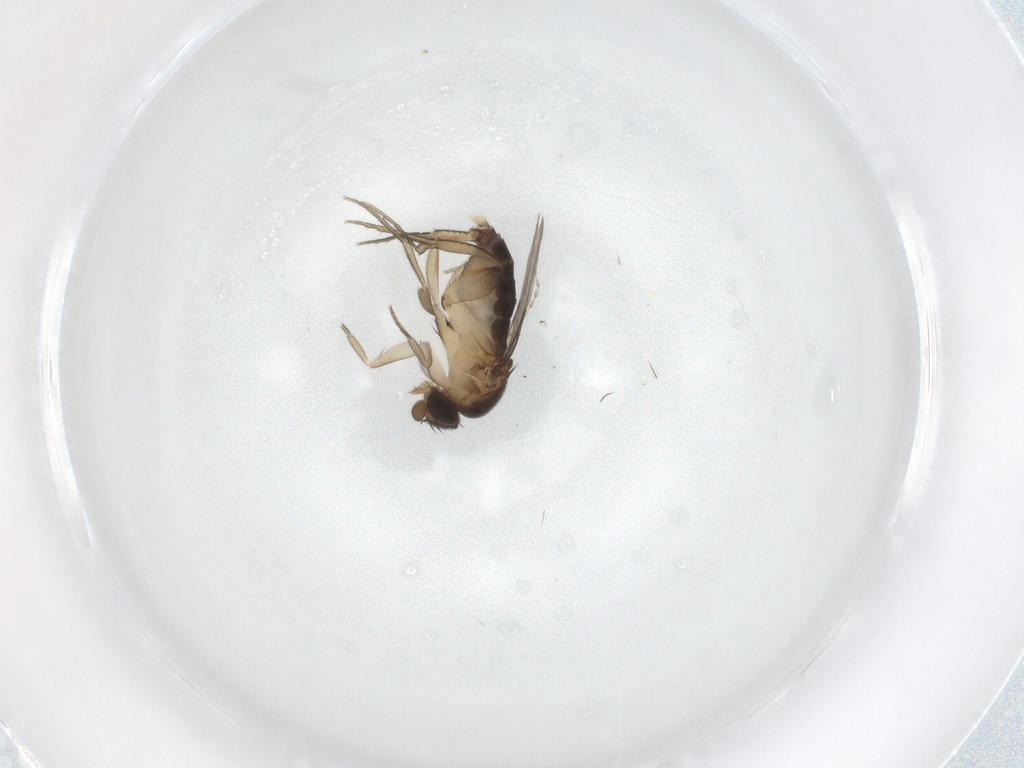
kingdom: Animalia
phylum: Arthropoda
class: Insecta
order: Diptera
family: Phoridae
